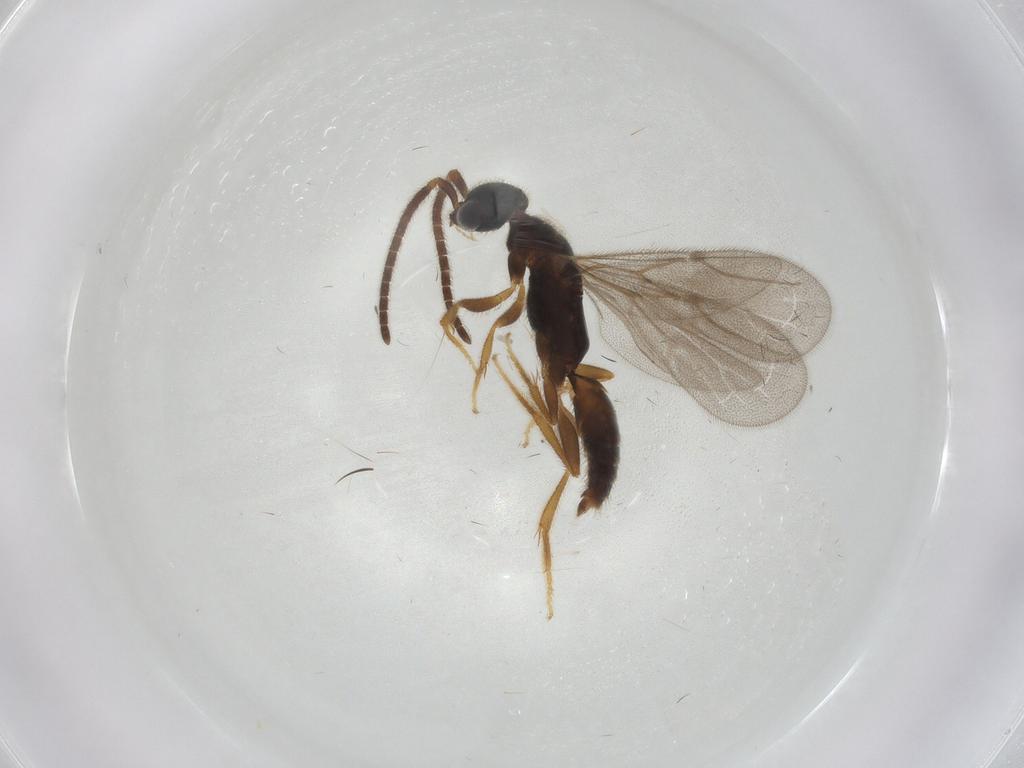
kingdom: Animalia
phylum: Arthropoda
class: Insecta
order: Hymenoptera
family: Bethylidae
